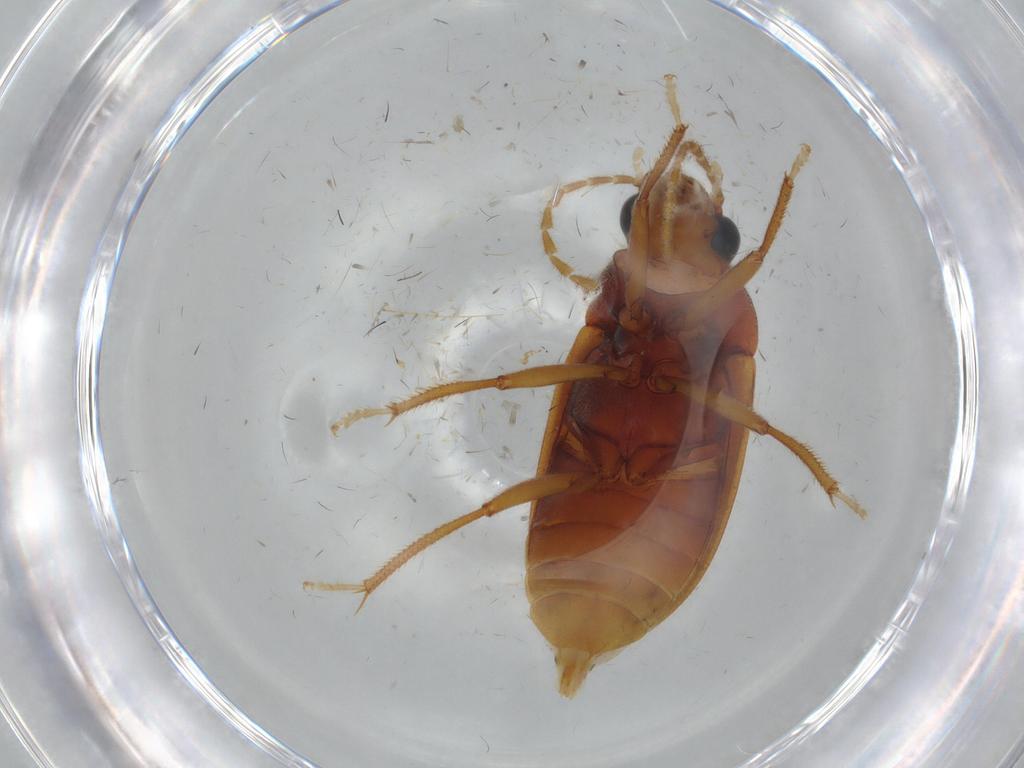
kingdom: Animalia
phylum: Arthropoda
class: Insecta
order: Coleoptera
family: Ptilodactylidae
